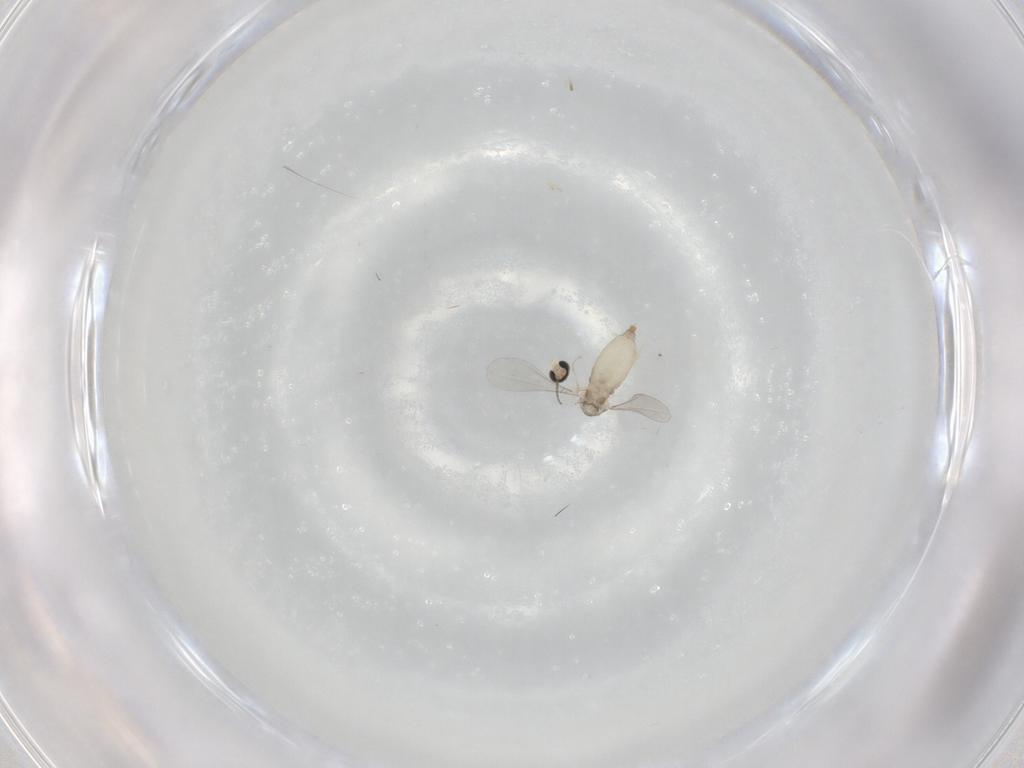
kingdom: Animalia
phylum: Arthropoda
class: Insecta
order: Diptera
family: Sphaeroceridae
